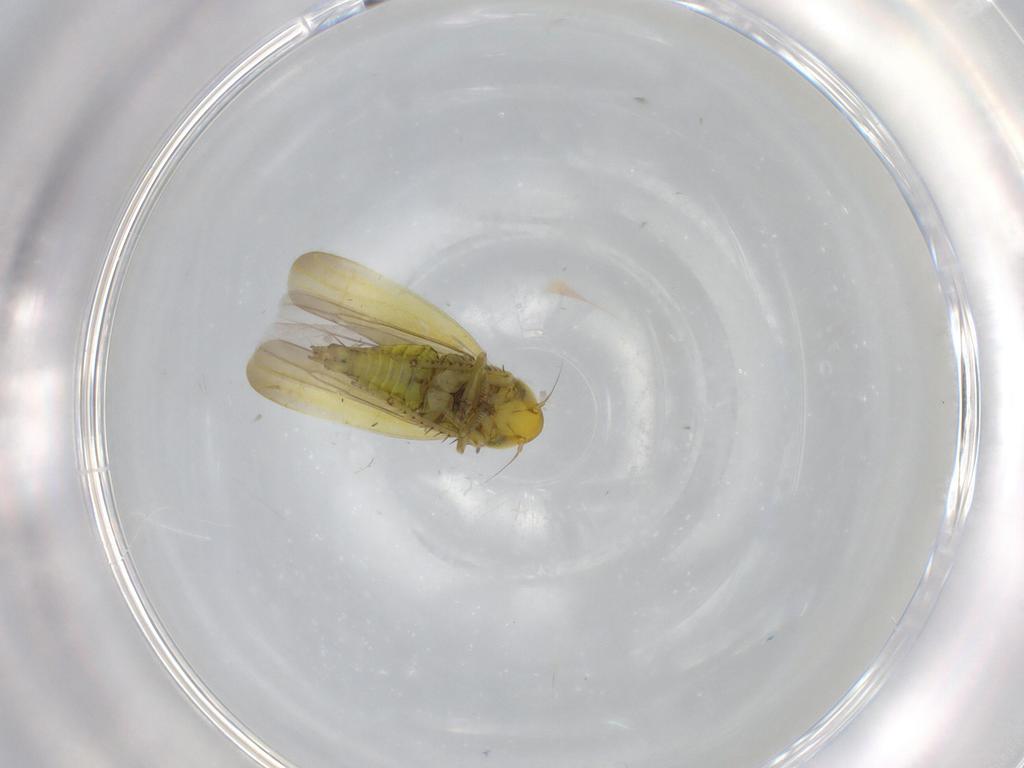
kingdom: Animalia
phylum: Arthropoda
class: Insecta
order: Hemiptera
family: Cicadellidae
